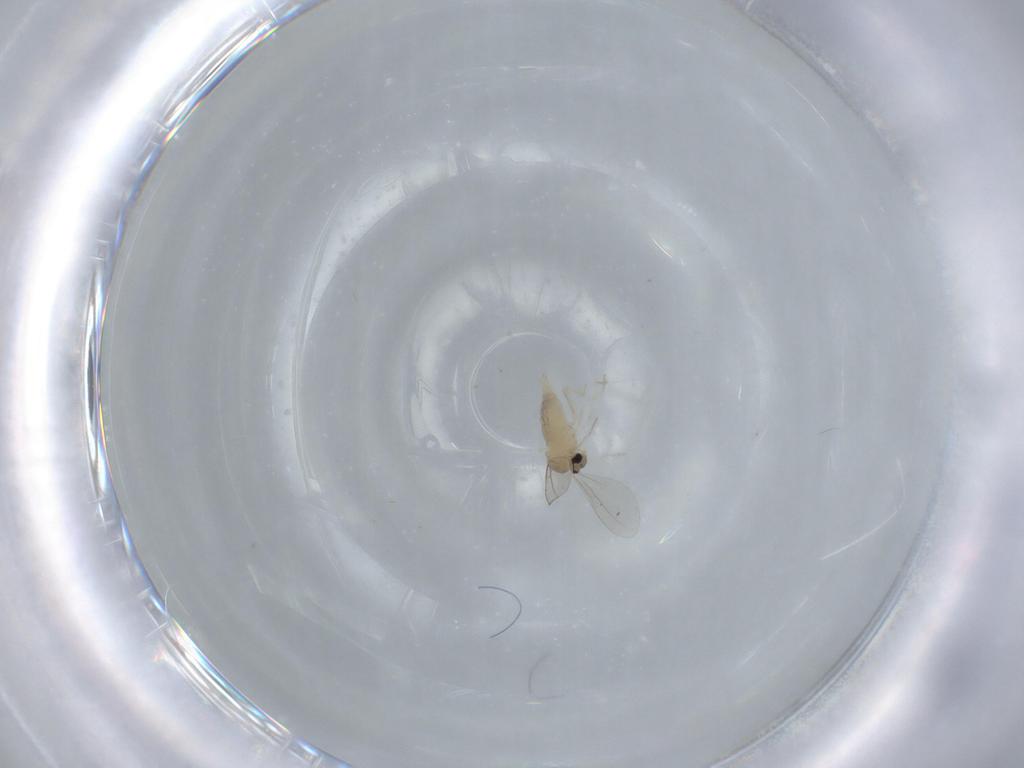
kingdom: Animalia
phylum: Arthropoda
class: Insecta
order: Diptera
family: Cecidomyiidae
